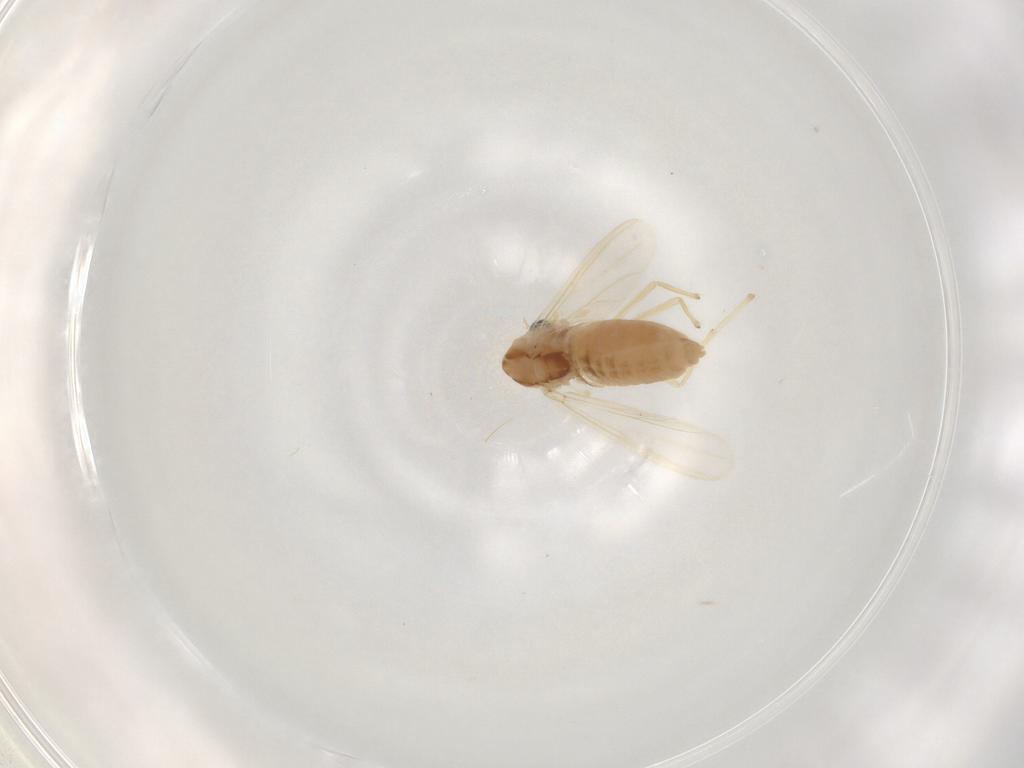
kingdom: Animalia
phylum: Arthropoda
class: Insecta
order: Diptera
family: Chironomidae
